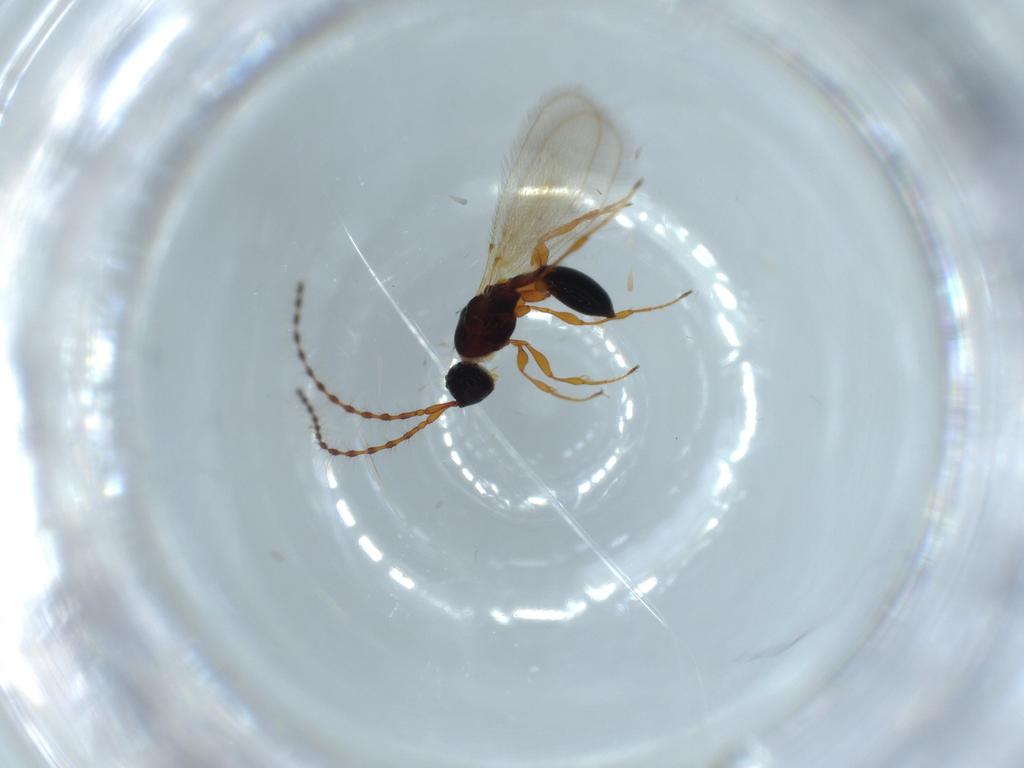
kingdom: Animalia
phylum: Arthropoda
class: Insecta
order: Hymenoptera
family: Diapriidae
